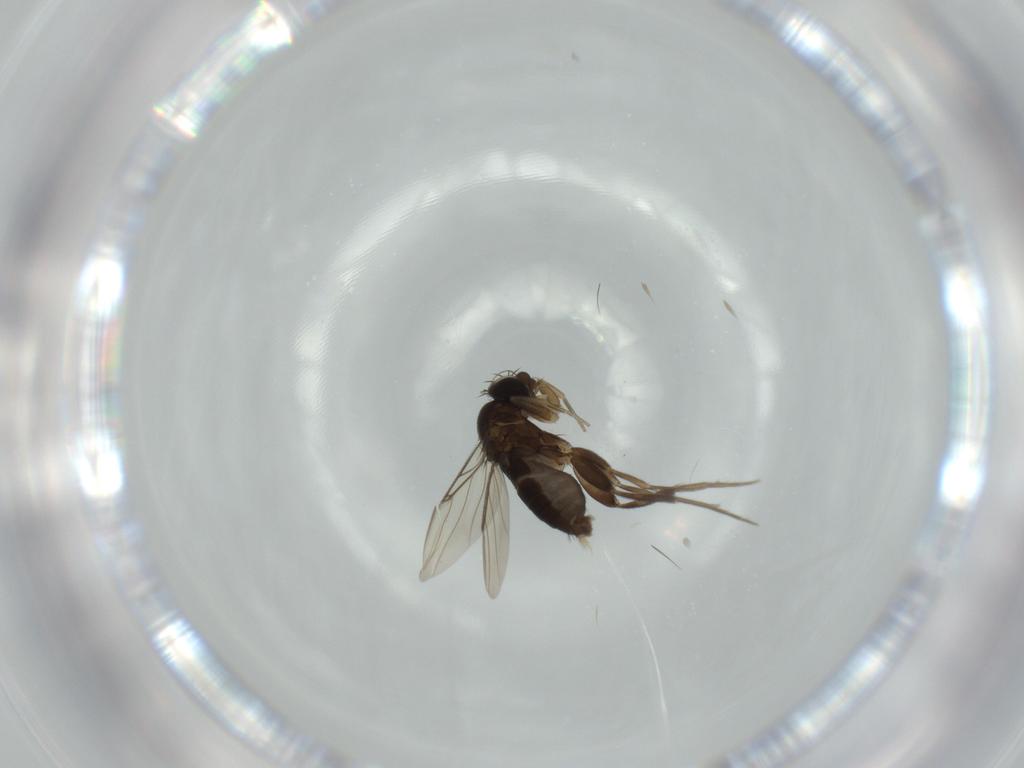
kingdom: Animalia
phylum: Arthropoda
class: Insecta
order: Diptera
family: Phoridae
